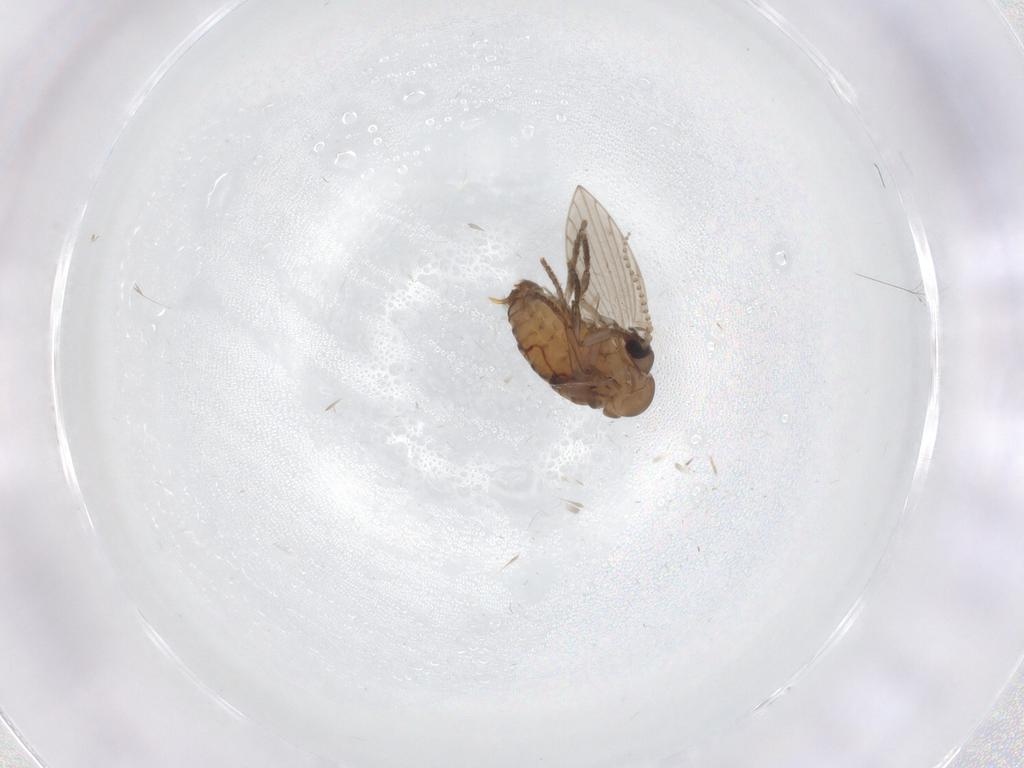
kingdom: Animalia
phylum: Arthropoda
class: Insecta
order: Diptera
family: Psychodidae
